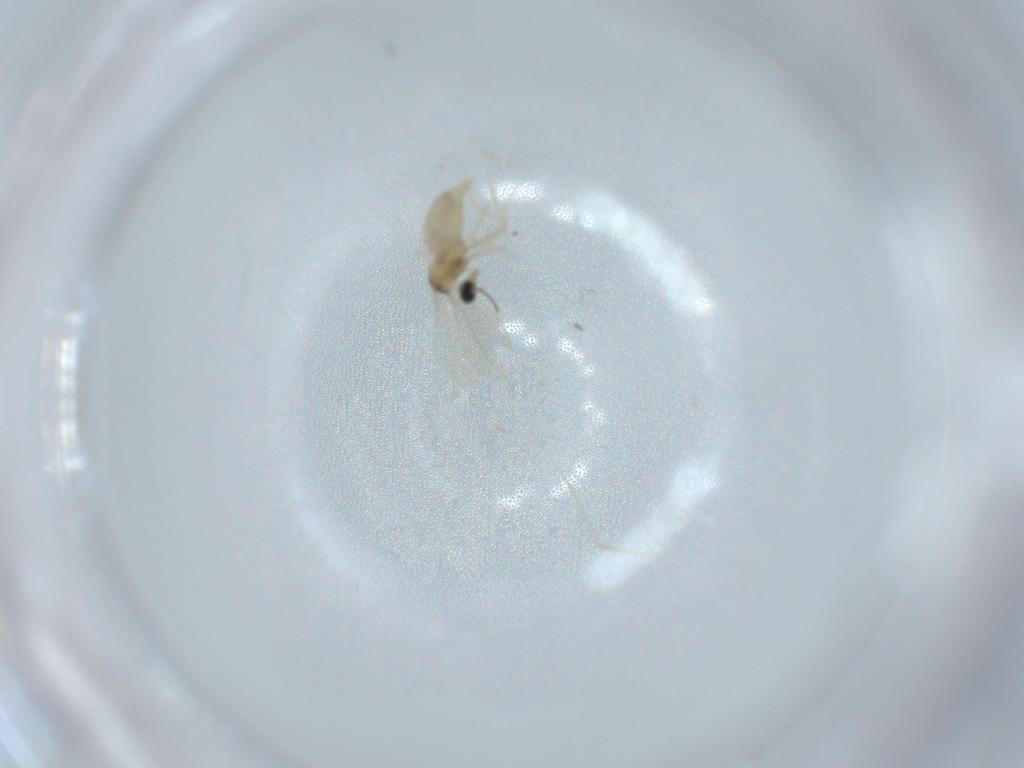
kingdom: Animalia
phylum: Arthropoda
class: Insecta
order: Diptera
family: Cecidomyiidae
